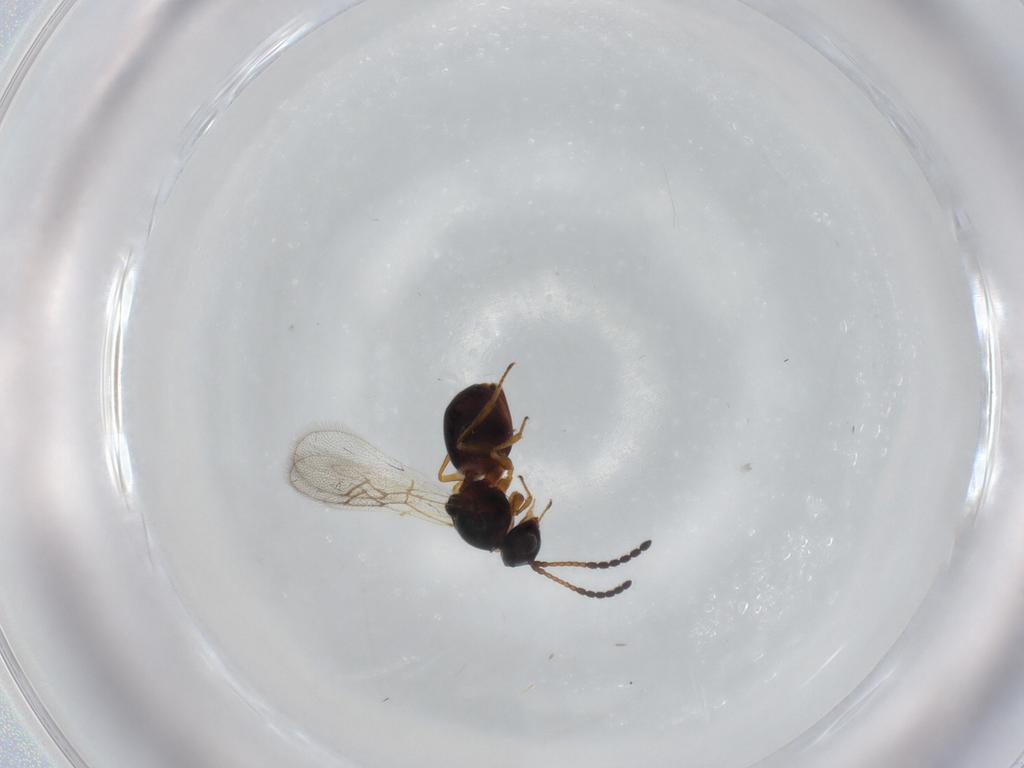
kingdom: Animalia
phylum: Arthropoda
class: Insecta
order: Hymenoptera
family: Figitidae
